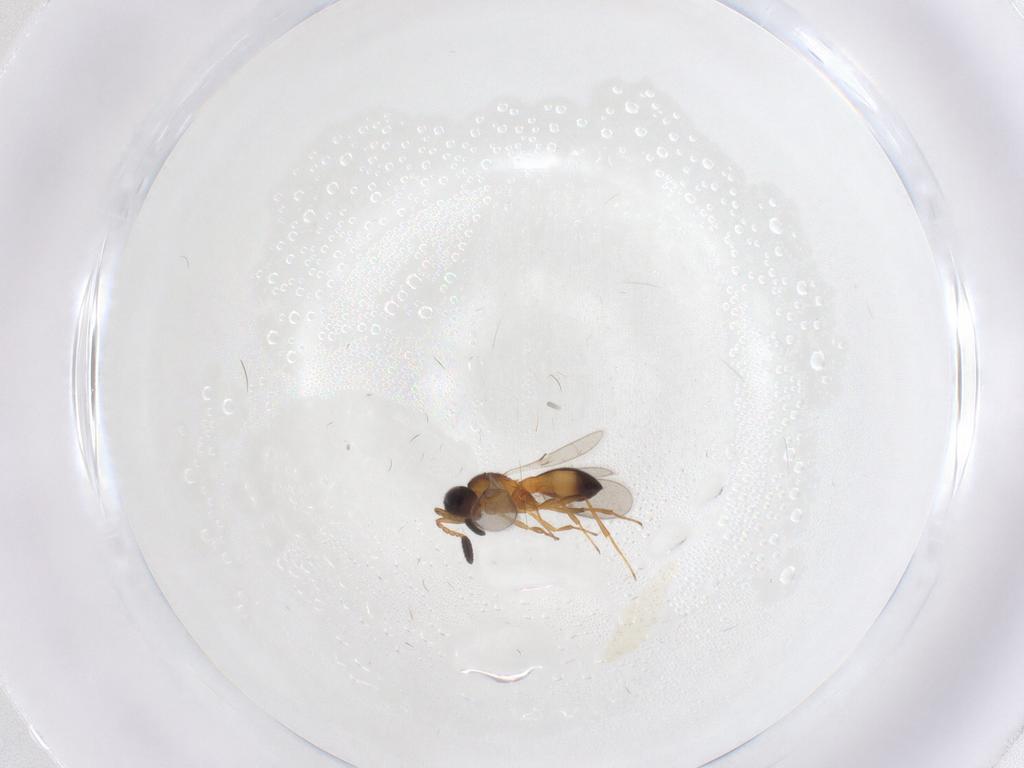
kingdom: Animalia
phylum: Arthropoda
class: Insecta
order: Hymenoptera
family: Scelionidae
